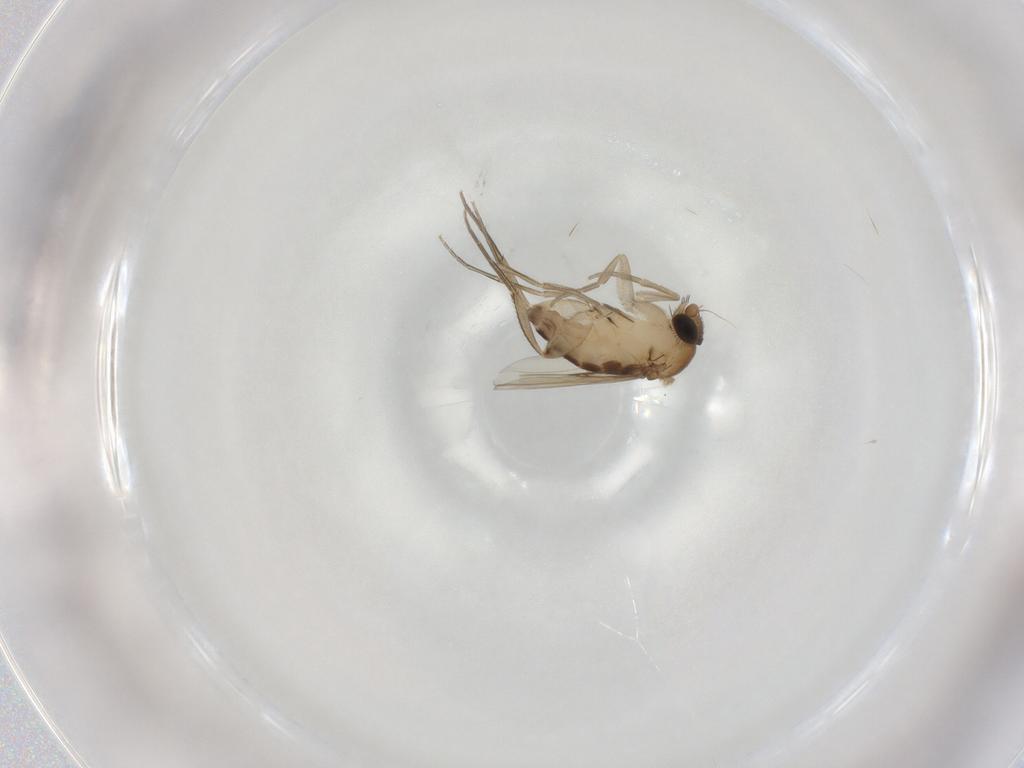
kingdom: Animalia
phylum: Arthropoda
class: Insecta
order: Diptera
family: Phoridae
